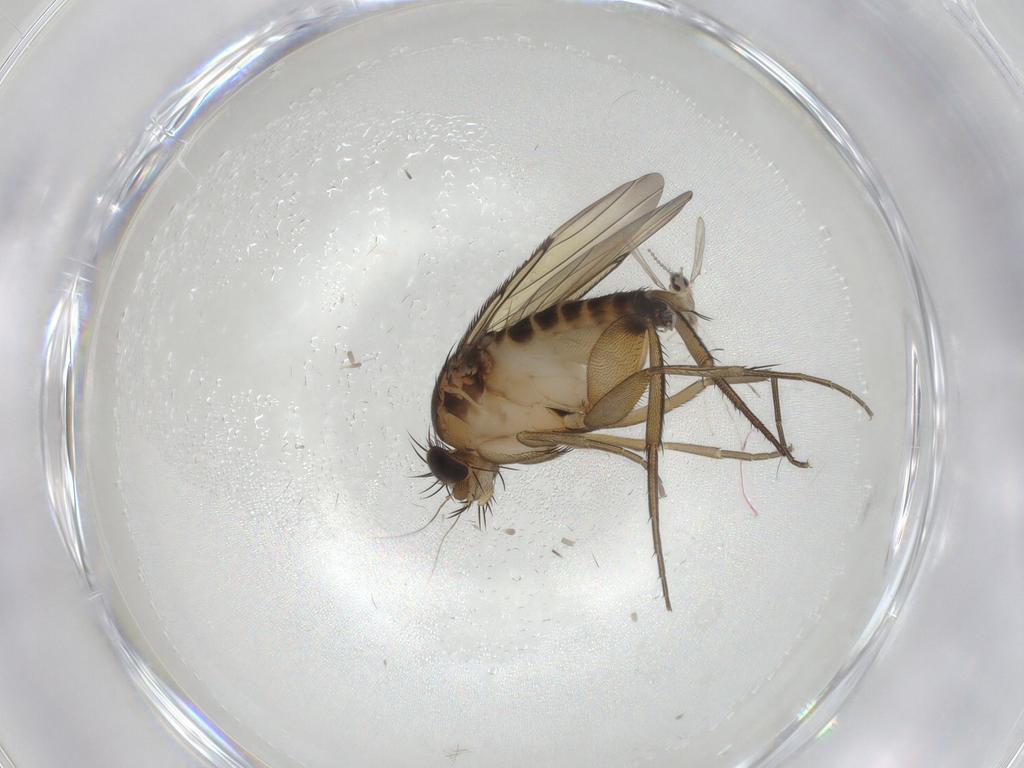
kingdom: Animalia
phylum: Arthropoda
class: Insecta
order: Diptera
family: Phoridae
